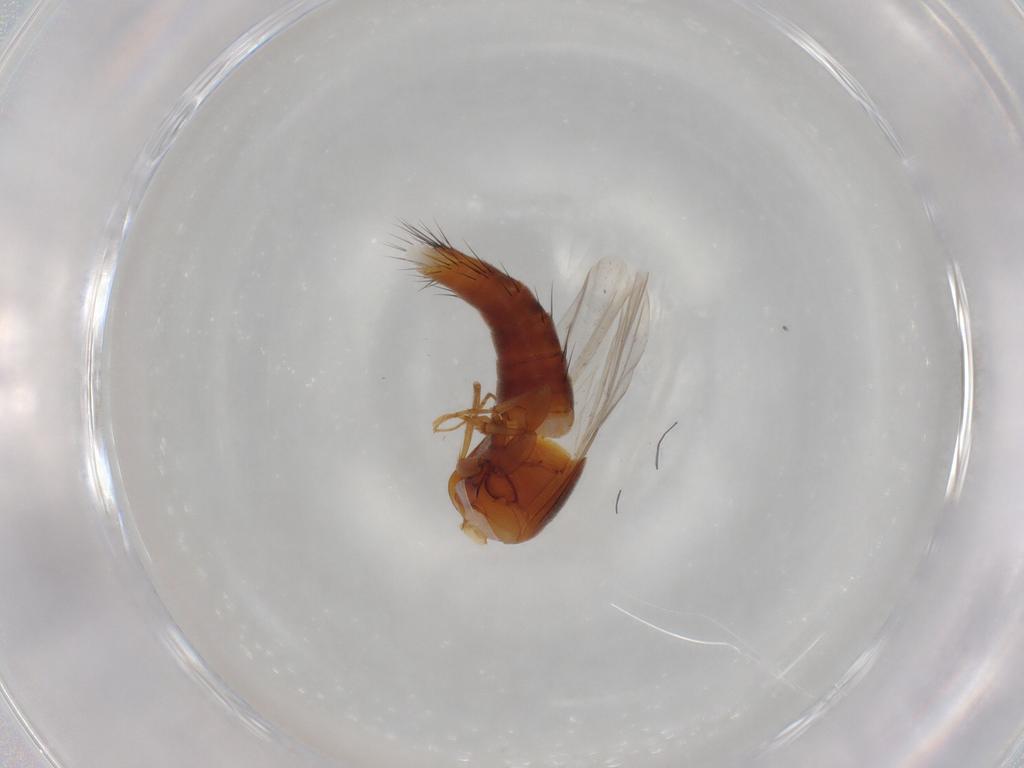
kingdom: Animalia
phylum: Arthropoda
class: Insecta
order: Coleoptera
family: Staphylinidae
